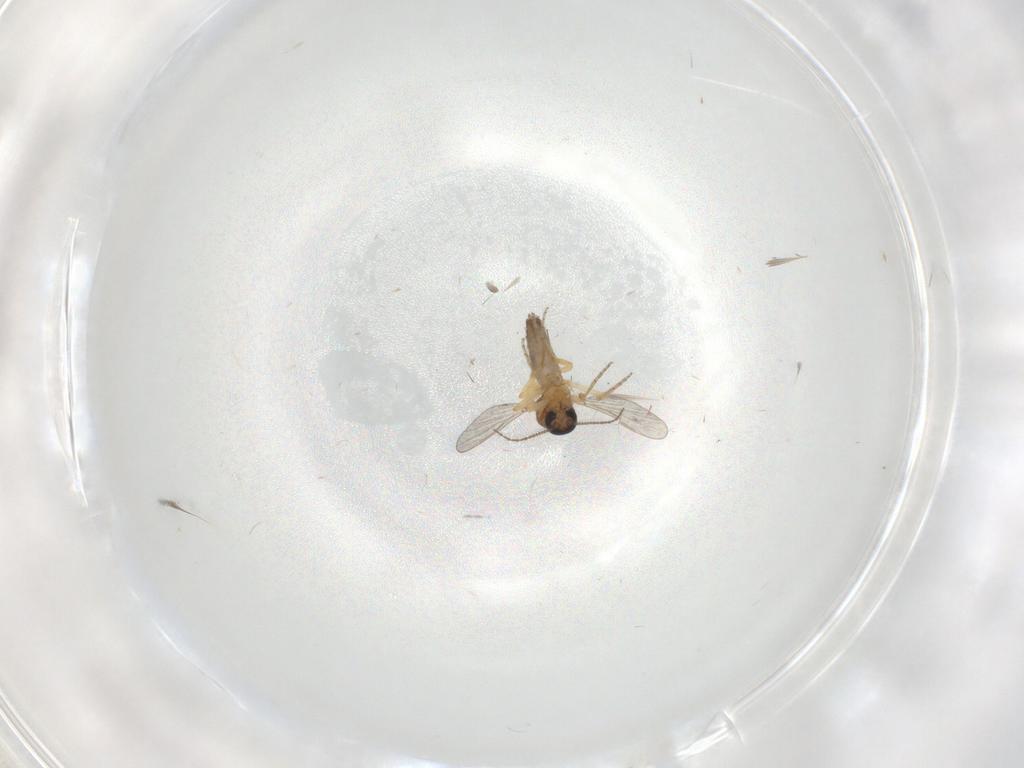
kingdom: Animalia
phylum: Arthropoda
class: Insecta
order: Diptera
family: Ceratopogonidae
